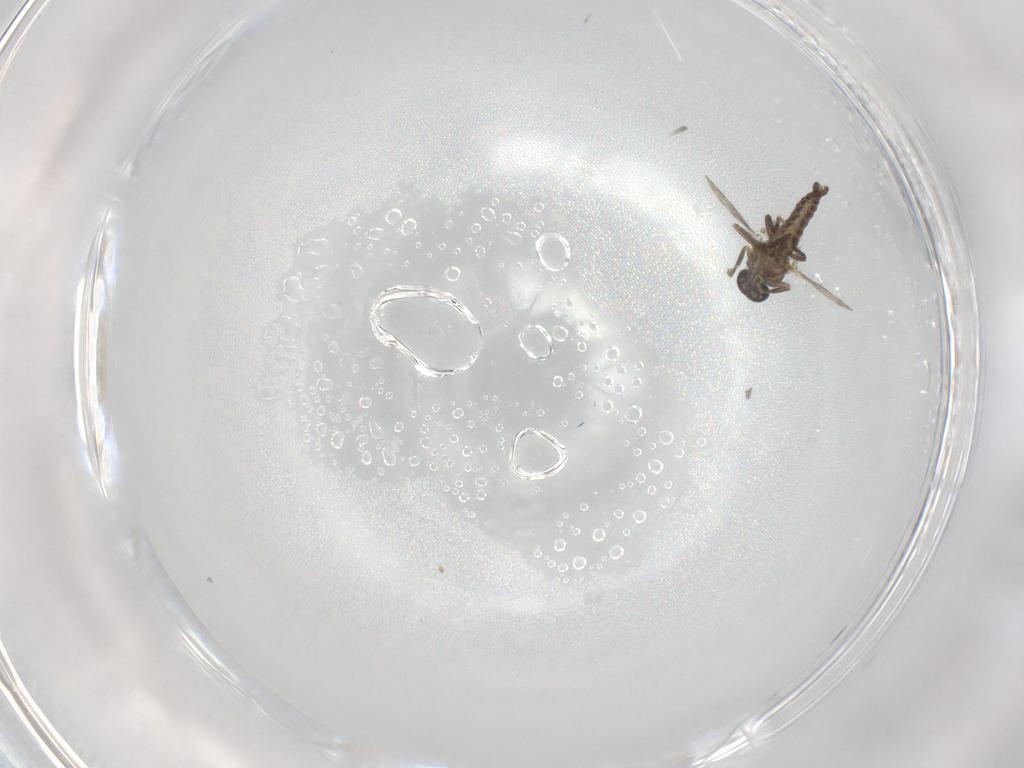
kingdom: Animalia
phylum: Arthropoda
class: Insecta
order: Diptera
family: Ceratopogonidae
